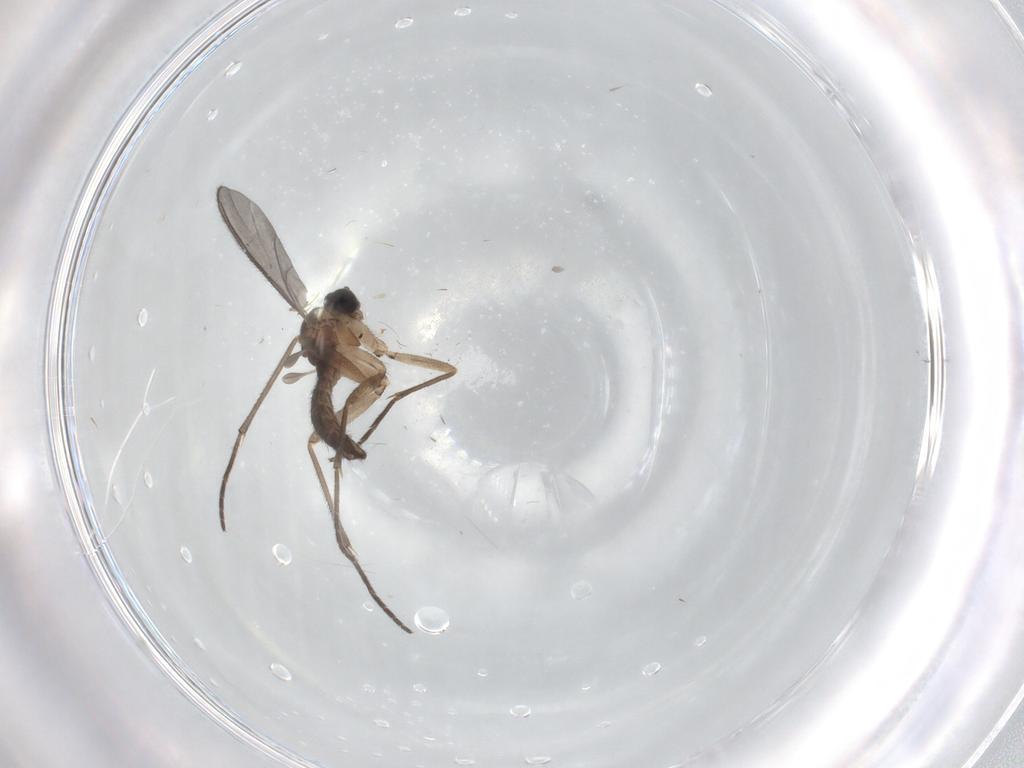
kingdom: Animalia
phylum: Arthropoda
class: Insecta
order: Diptera
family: Sciaridae
